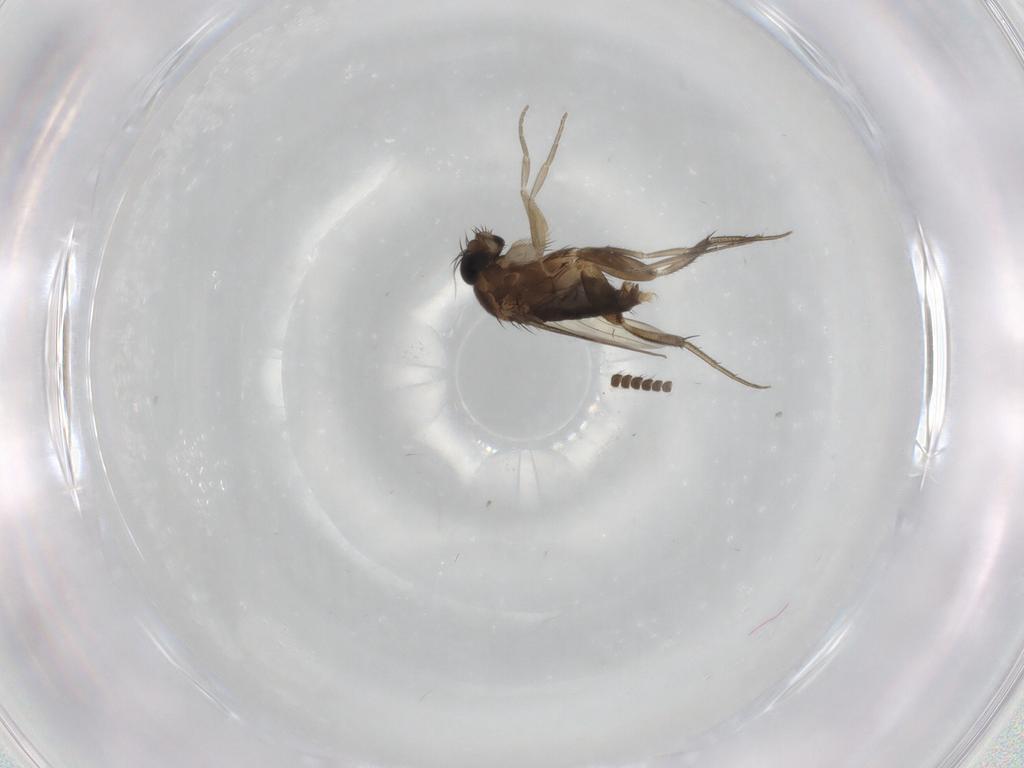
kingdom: Animalia
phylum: Arthropoda
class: Insecta
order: Diptera
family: Phoridae
